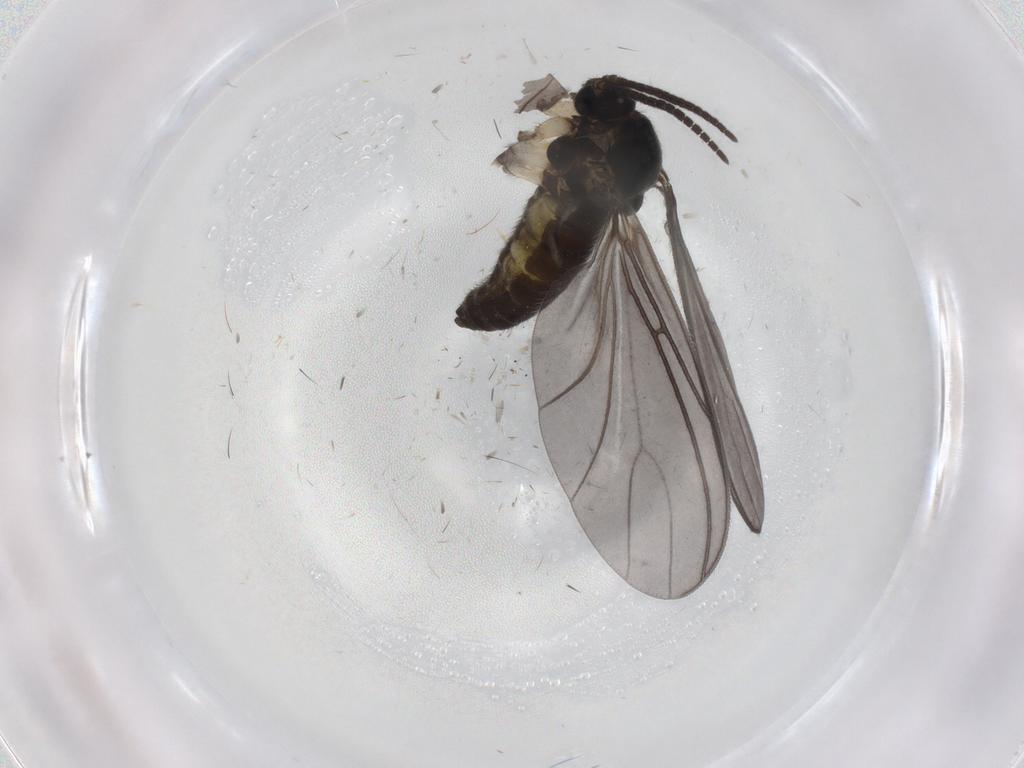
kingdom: Animalia
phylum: Arthropoda
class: Insecta
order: Diptera
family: Sciaridae
